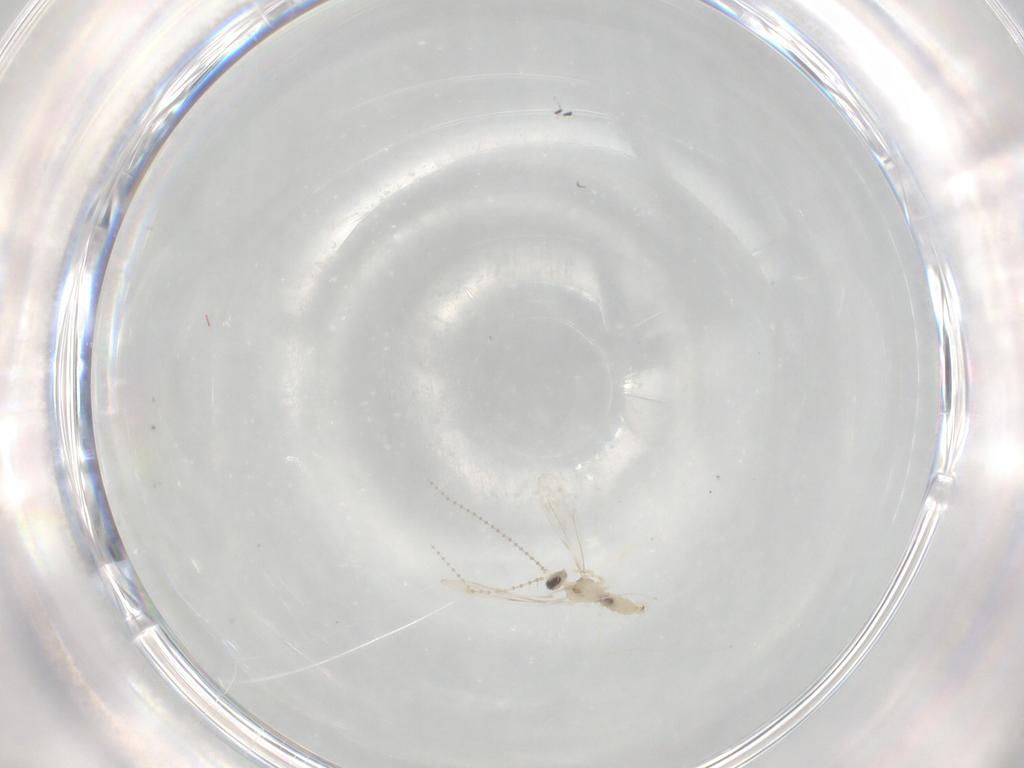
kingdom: Animalia
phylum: Arthropoda
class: Insecta
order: Diptera
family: Cecidomyiidae
